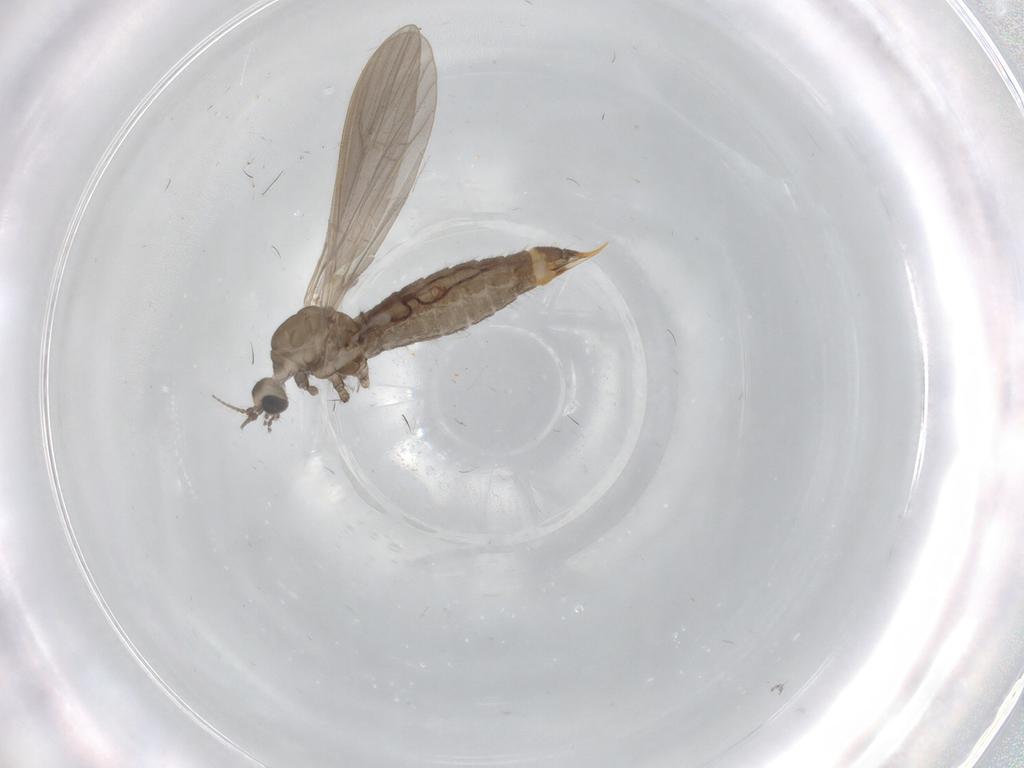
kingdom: Animalia
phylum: Arthropoda
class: Insecta
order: Diptera
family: Limoniidae
